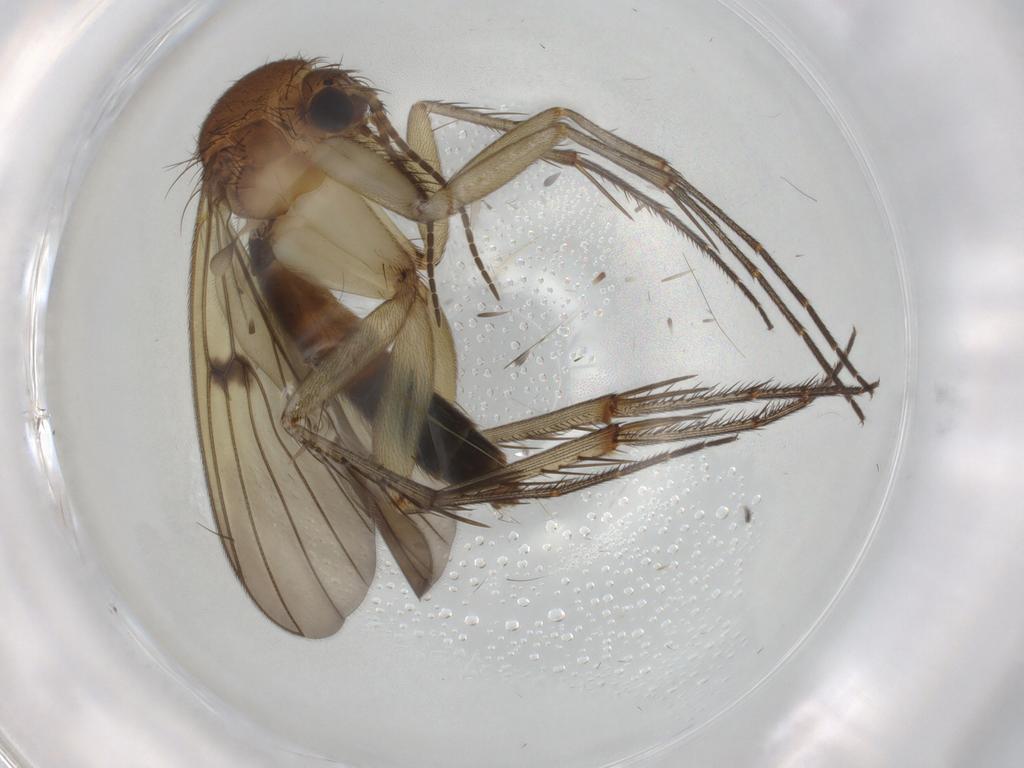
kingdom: Animalia
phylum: Arthropoda
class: Insecta
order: Diptera
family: Mycetophilidae
